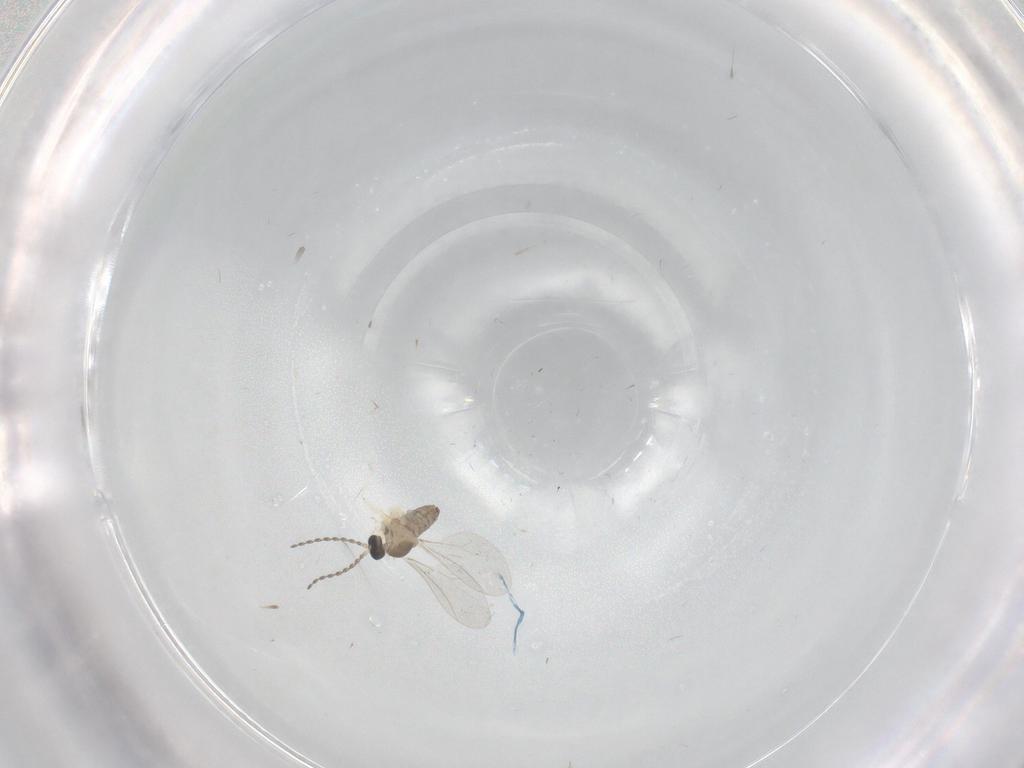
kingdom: Animalia
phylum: Arthropoda
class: Insecta
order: Diptera
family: Cecidomyiidae
